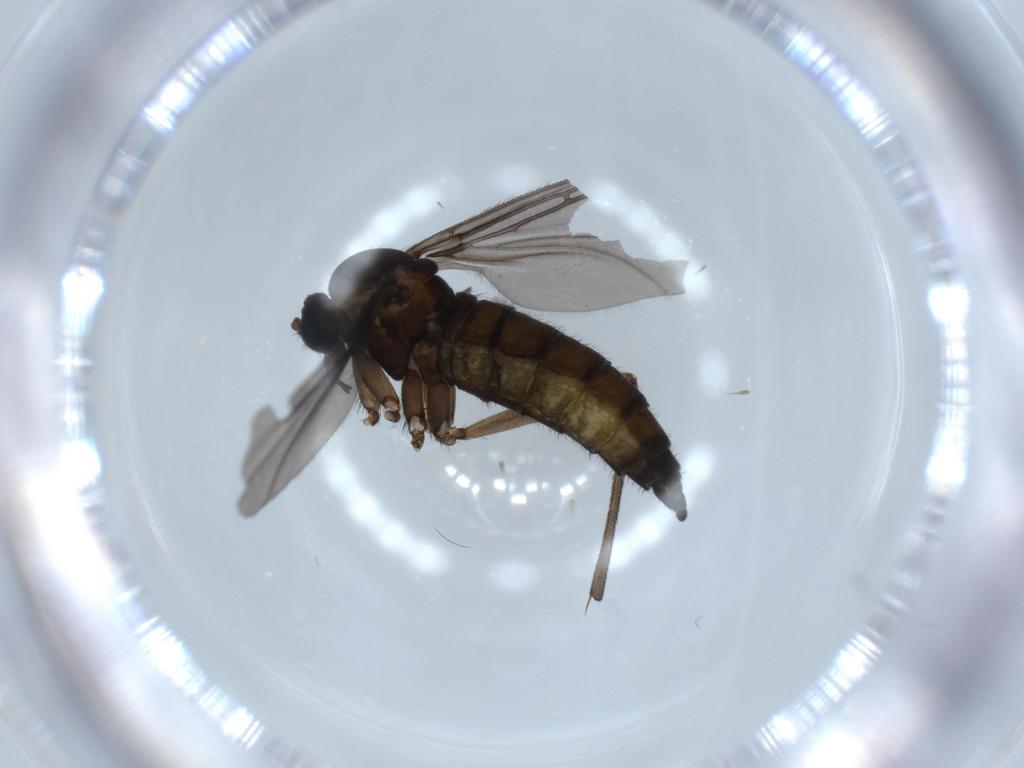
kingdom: Animalia
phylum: Arthropoda
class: Insecta
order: Diptera
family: Sciaridae
